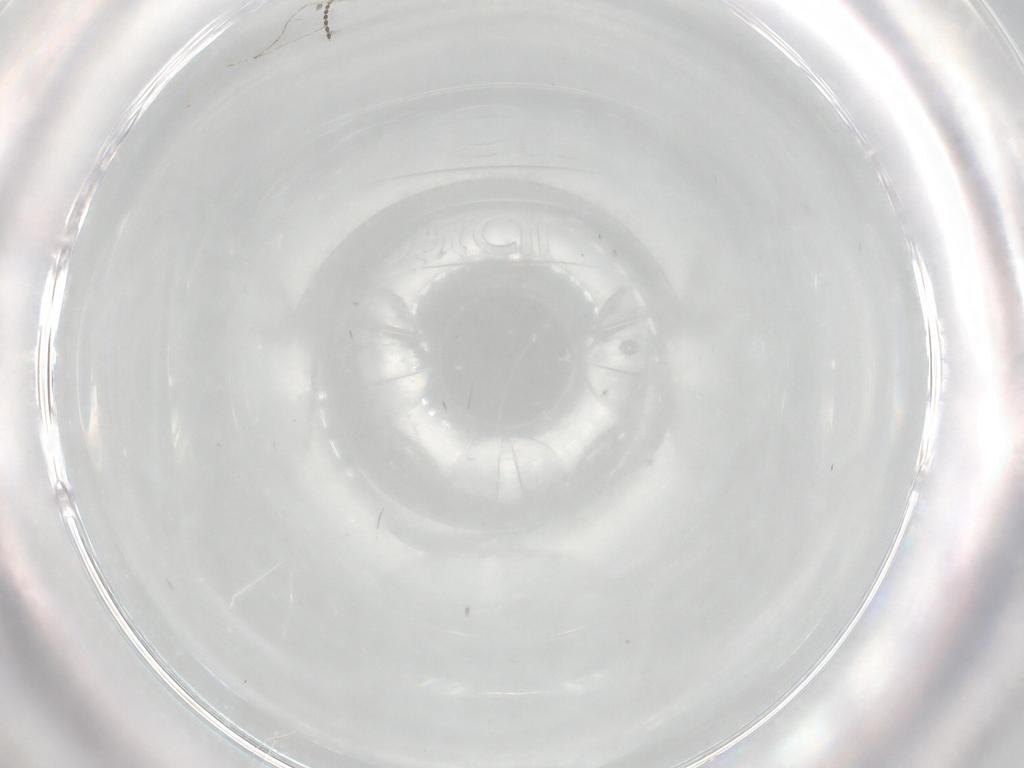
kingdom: Animalia
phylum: Arthropoda
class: Insecta
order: Diptera
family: Cecidomyiidae
